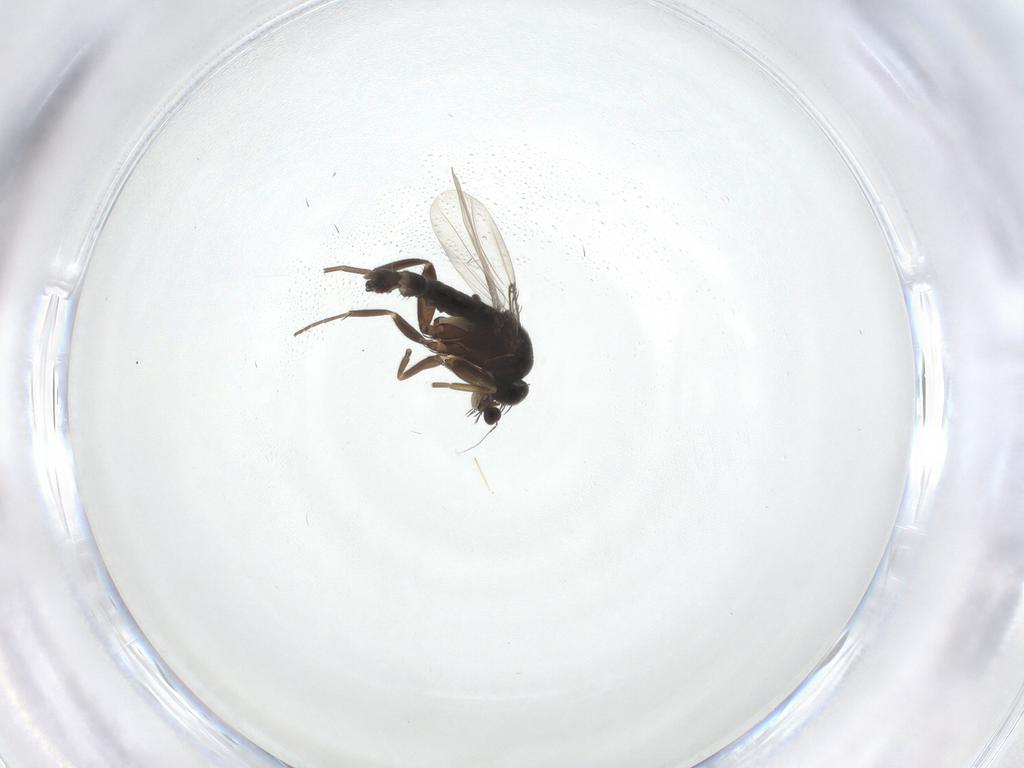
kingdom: Animalia
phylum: Arthropoda
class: Insecta
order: Diptera
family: Phoridae
